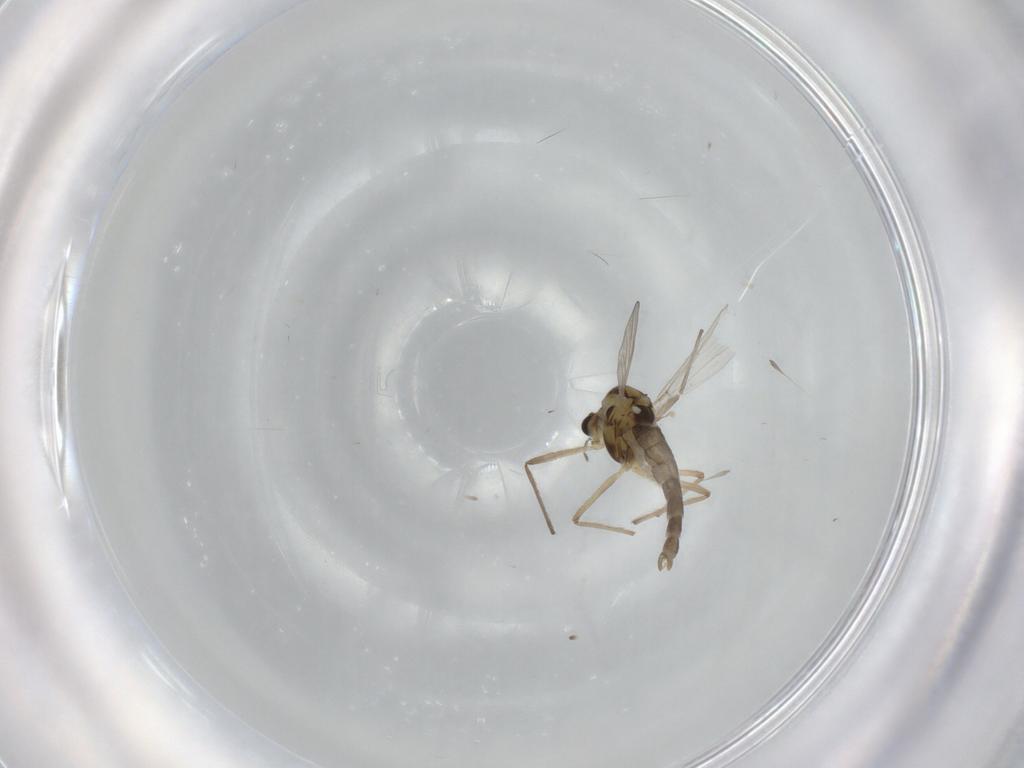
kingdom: Animalia
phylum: Arthropoda
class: Insecta
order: Diptera
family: Chironomidae
